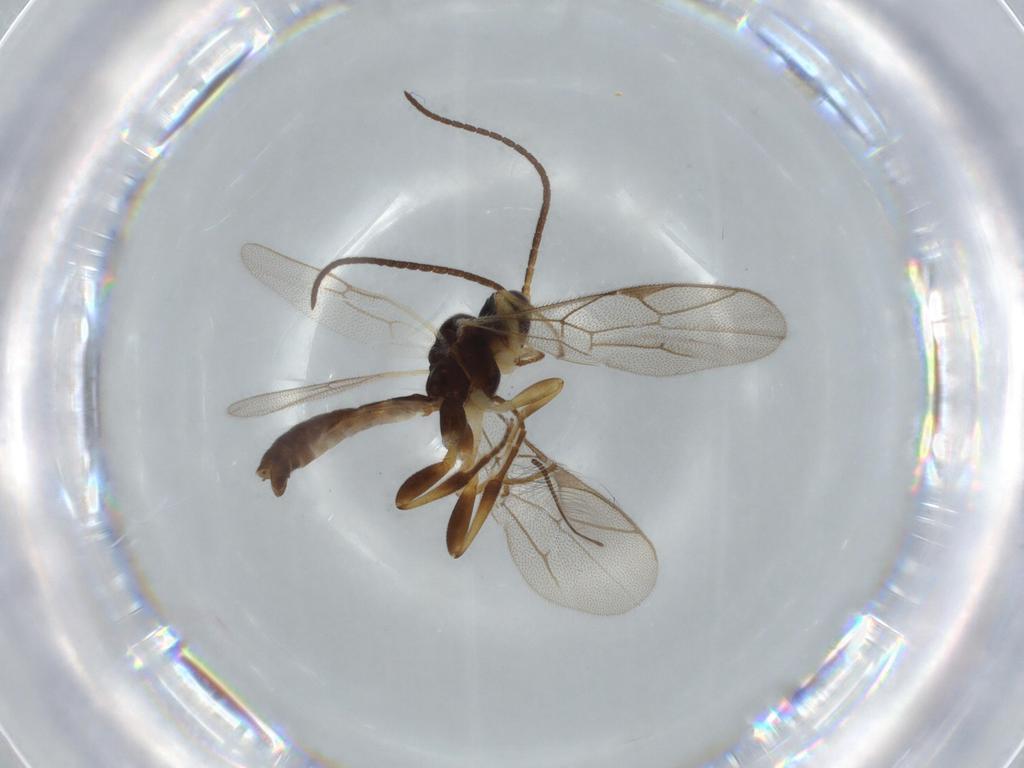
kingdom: Animalia
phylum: Arthropoda
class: Insecta
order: Hymenoptera
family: Ichneumonidae
